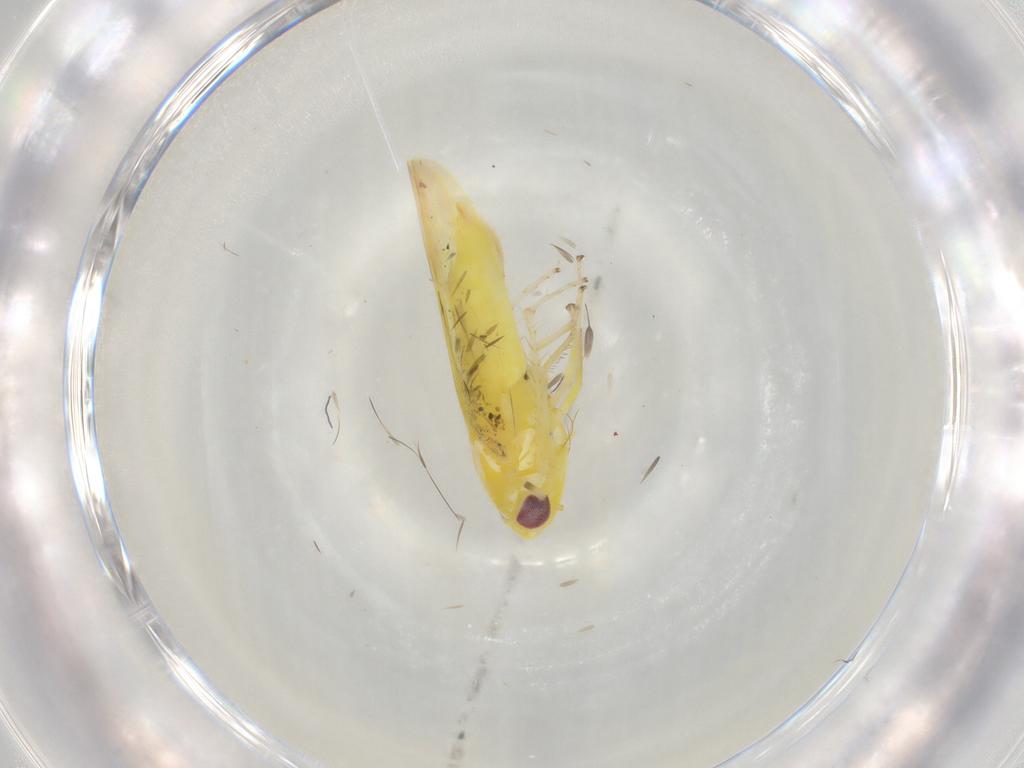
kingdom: Animalia
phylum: Arthropoda
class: Insecta
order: Hemiptera
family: Cicadellidae
